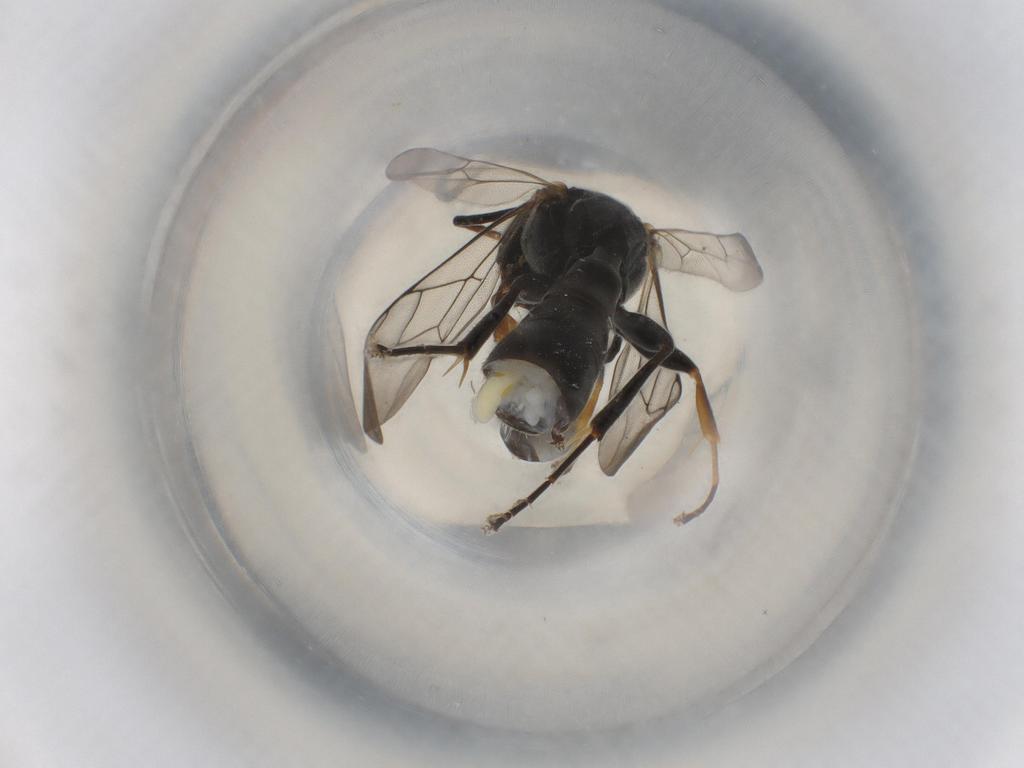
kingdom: Animalia
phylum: Arthropoda
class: Insecta
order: Hymenoptera
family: Crabronidae
